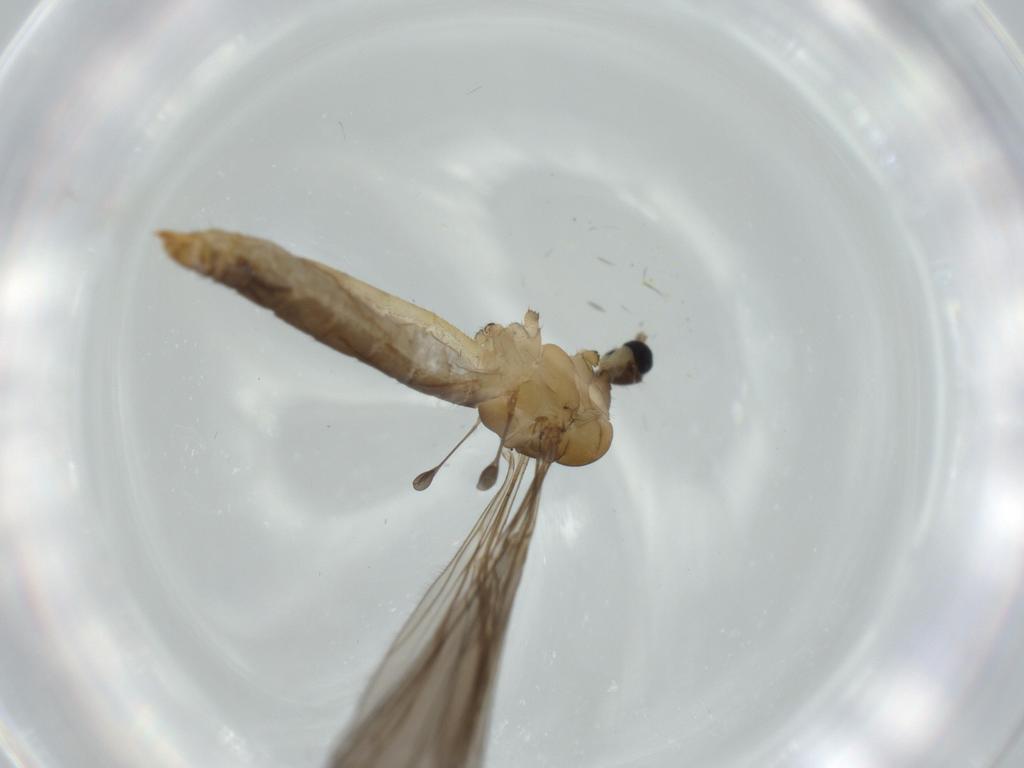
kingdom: Animalia
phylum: Arthropoda
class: Insecta
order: Diptera
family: Limoniidae
